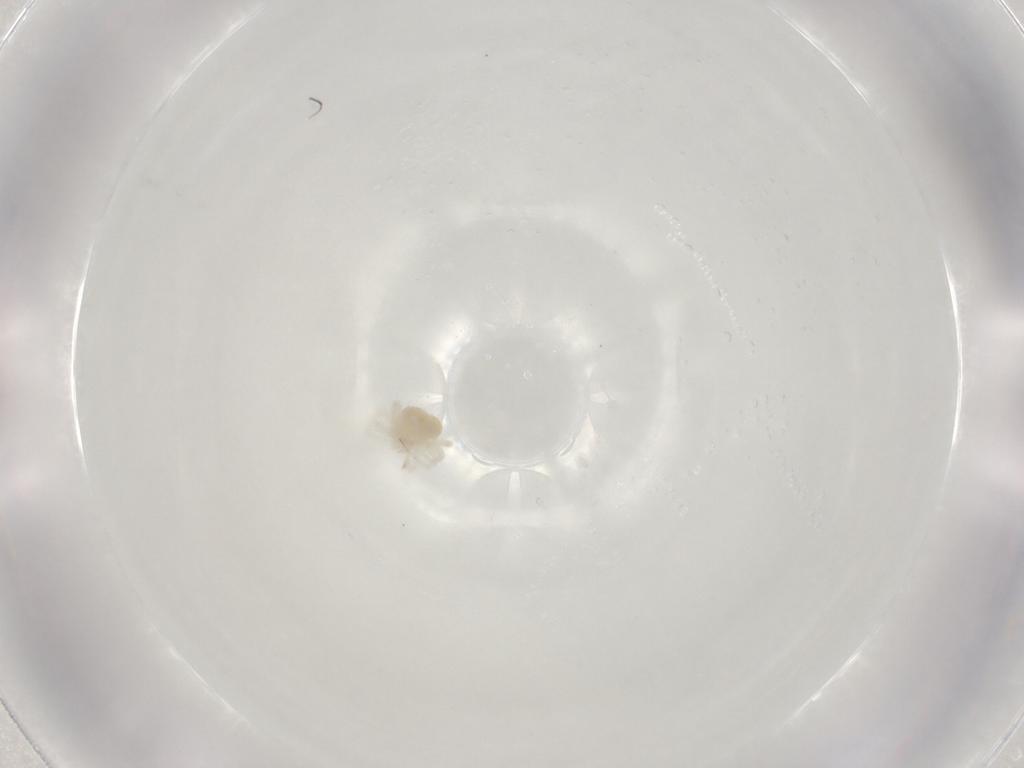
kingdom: Animalia
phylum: Arthropoda
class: Arachnida
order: Trombidiformes
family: Anystidae
